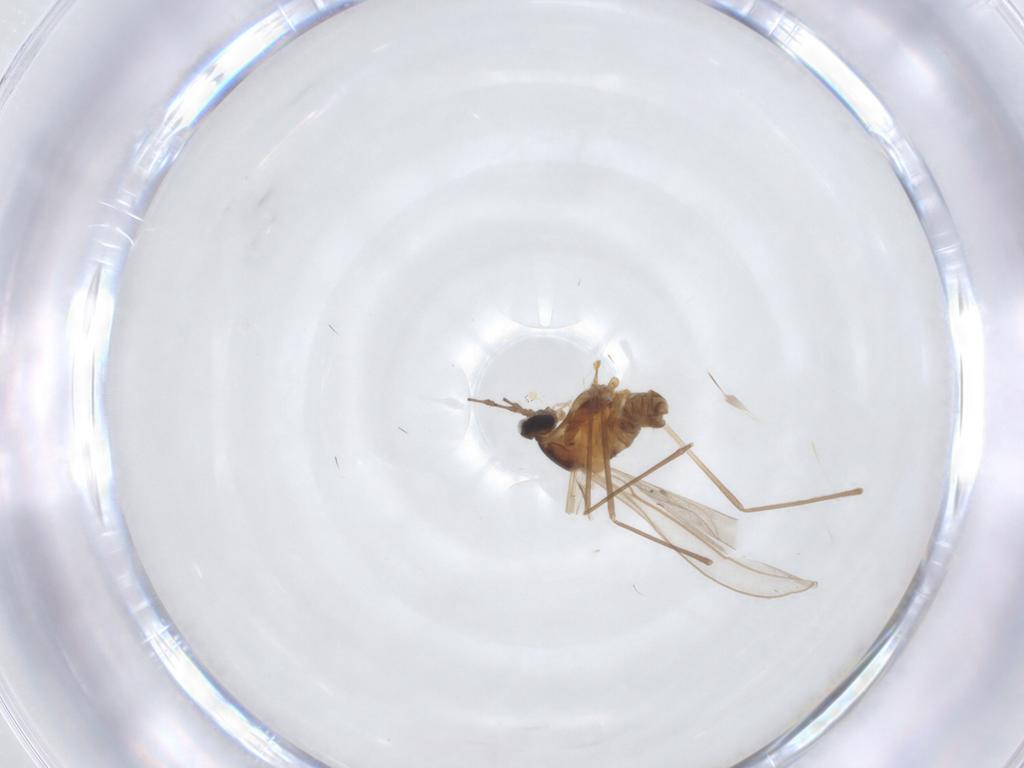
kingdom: Animalia
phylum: Arthropoda
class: Insecta
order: Diptera
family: Cecidomyiidae
